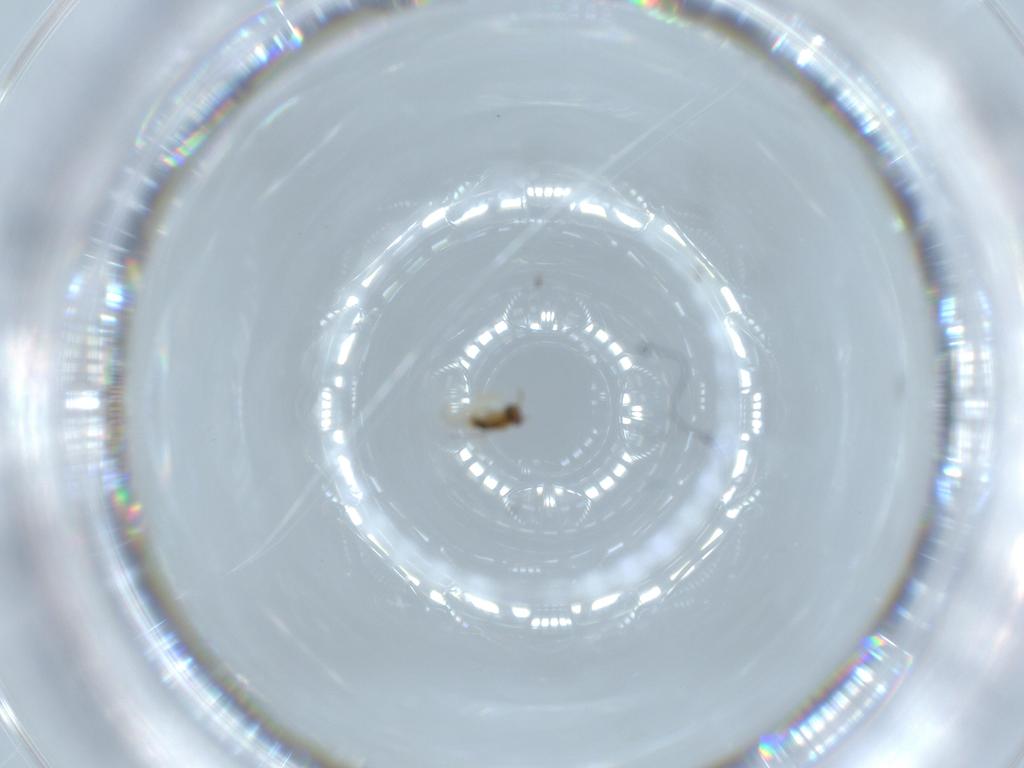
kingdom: Animalia
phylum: Arthropoda
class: Insecta
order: Hymenoptera
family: Aphelinidae
